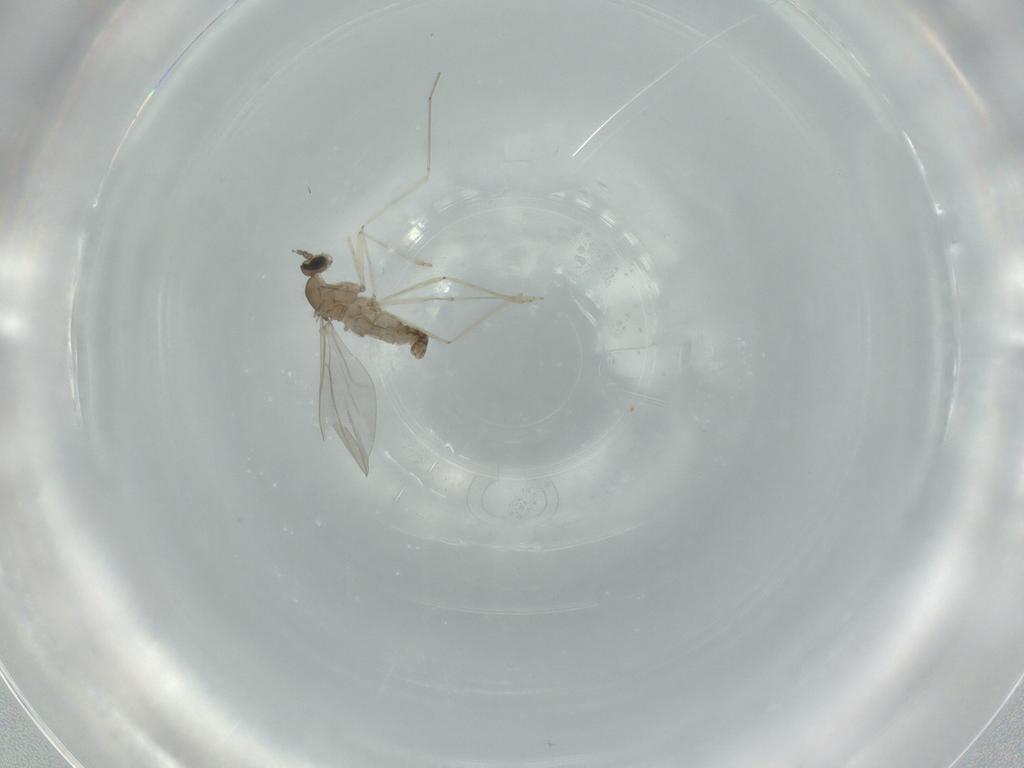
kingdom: Animalia
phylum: Arthropoda
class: Insecta
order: Diptera
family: Cecidomyiidae
